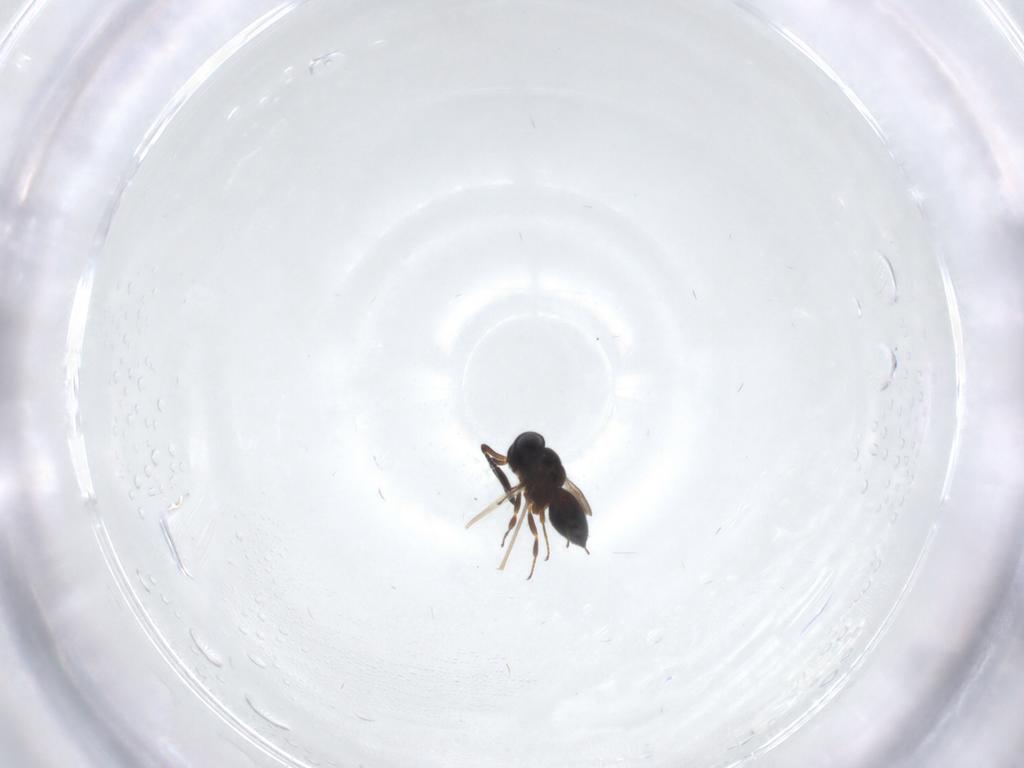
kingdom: Animalia
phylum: Arthropoda
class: Insecta
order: Hymenoptera
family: Scelionidae
